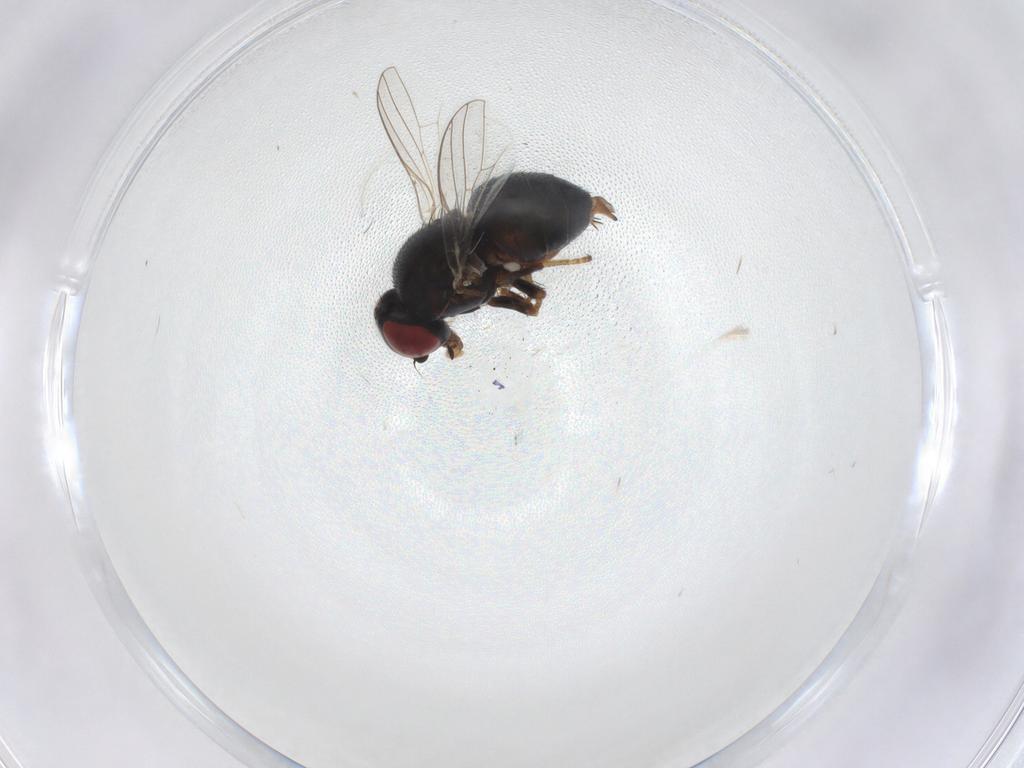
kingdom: Animalia
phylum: Arthropoda
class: Insecta
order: Diptera
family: Chamaemyiidae
